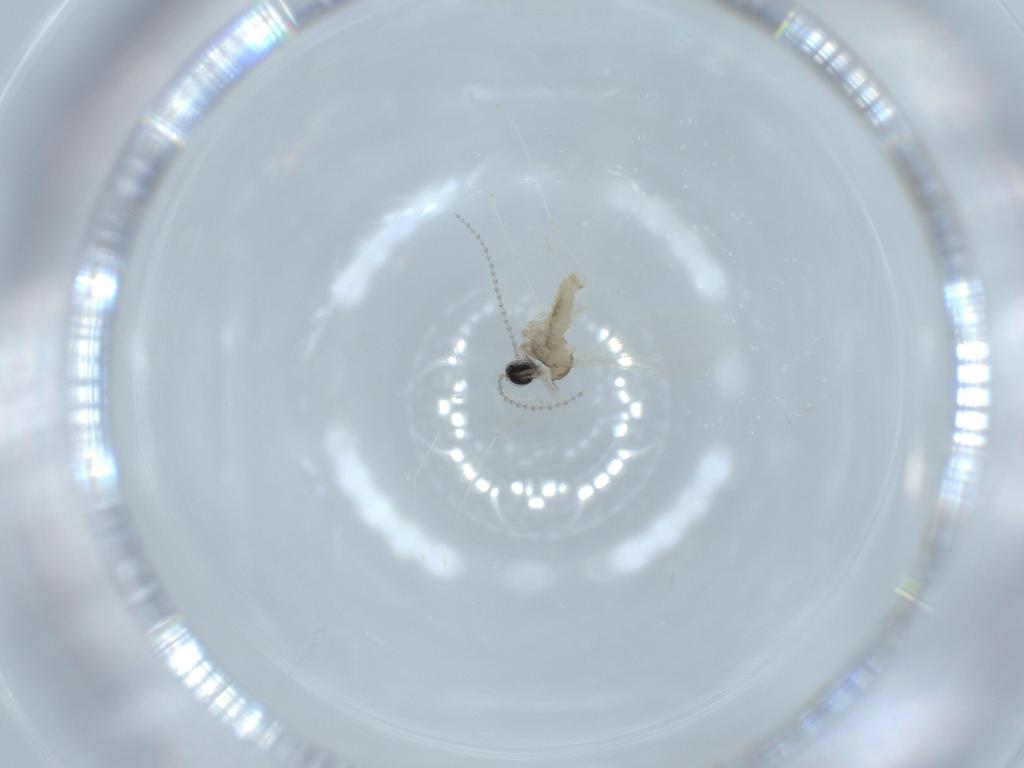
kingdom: Animalia
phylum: Arthropoda
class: Insecta
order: Diptera
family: Cecidomyiidae
